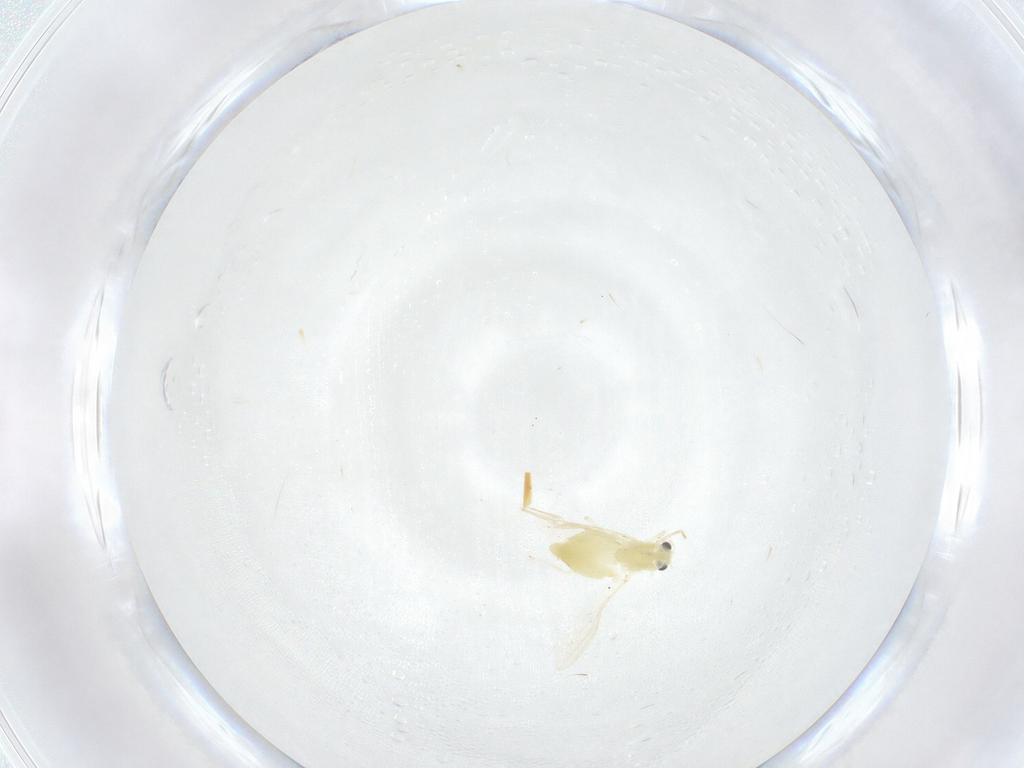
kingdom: Animalia
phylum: Arthropoda
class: Insecta
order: Diptera
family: Chironomidae
